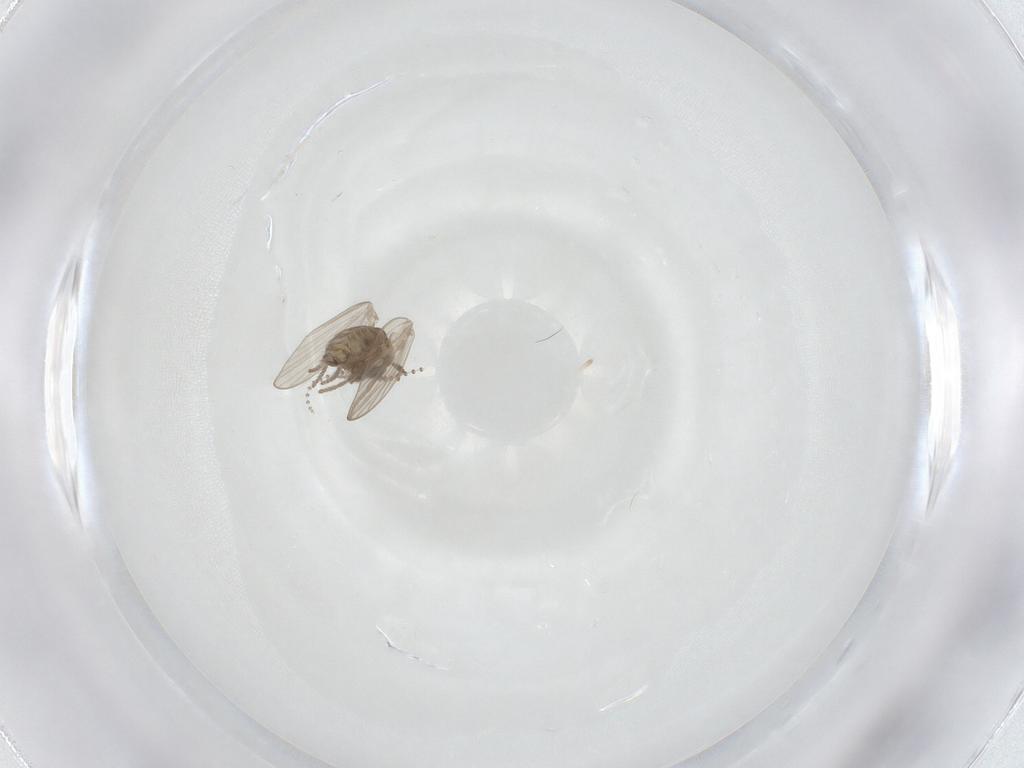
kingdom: Animalia
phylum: Arthropoda
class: Insecta
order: Diptera
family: Psychodidae
